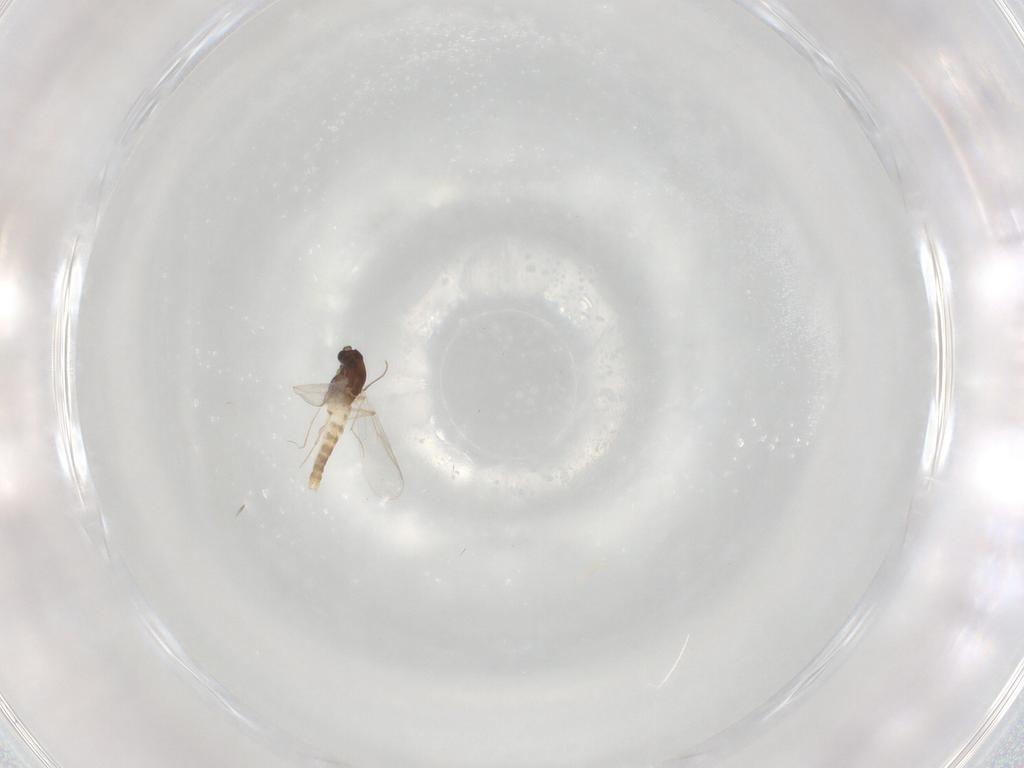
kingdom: Animalia
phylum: Arthropoda
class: Insecta
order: Diptera
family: Chironomidae
